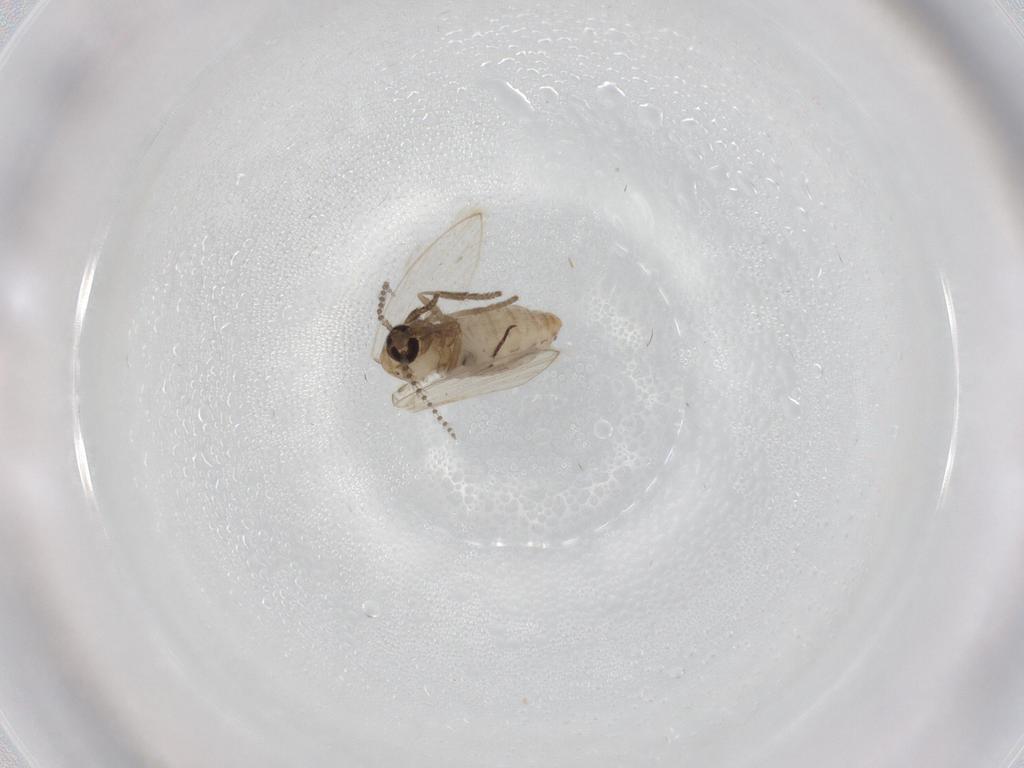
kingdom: Animalia
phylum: Arthropoda
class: Insecta
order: Diptera
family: Psychodidae
